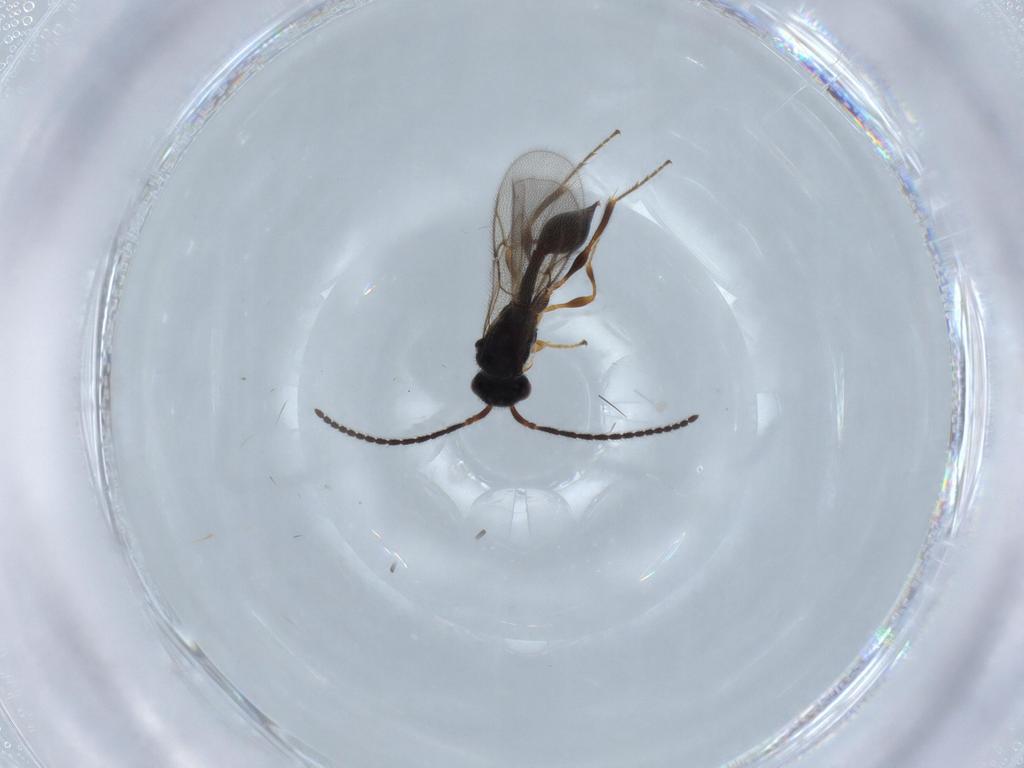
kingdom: Animalia
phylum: Arthropoda
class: Insecta
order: Hymenoptera
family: Diapriidae
